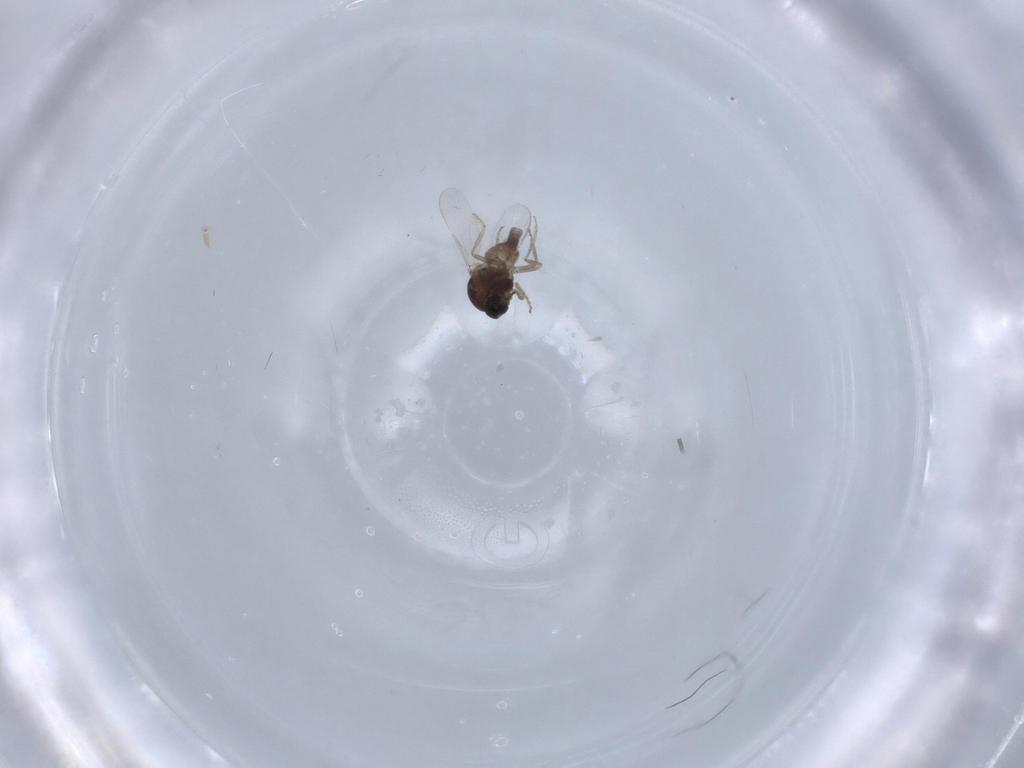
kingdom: Animalia
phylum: Arthropoda
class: Insecta
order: Diptera
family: Ceratopogonidae
